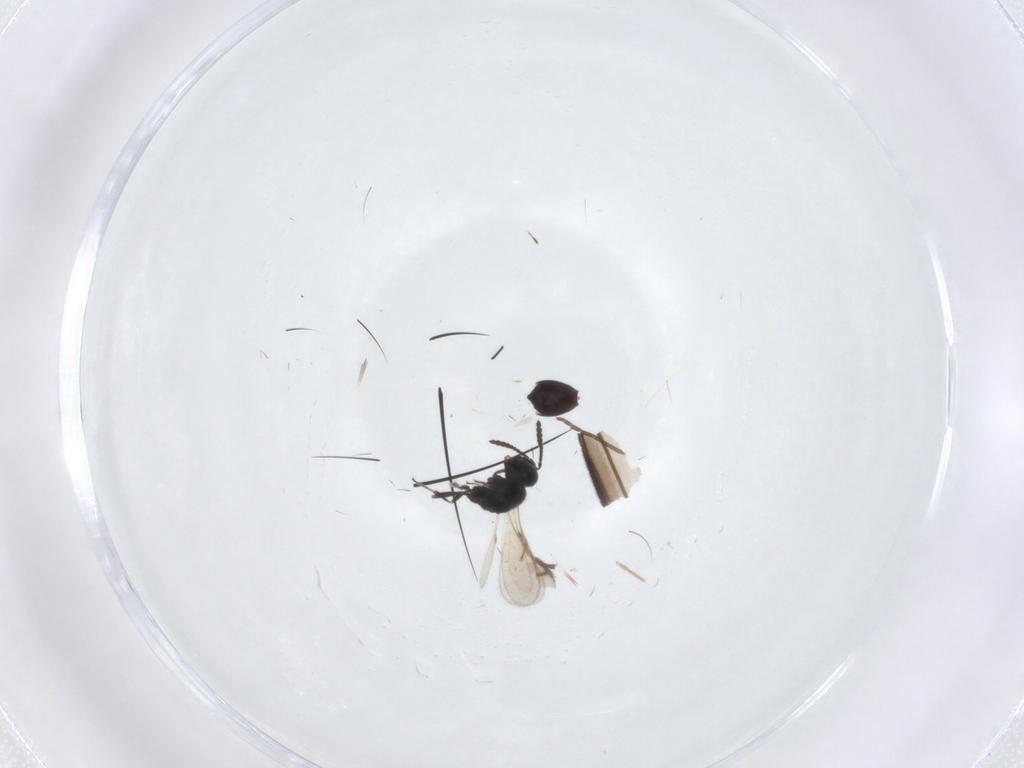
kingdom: Animalia
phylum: Arthropoda
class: Insecta
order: Hymenoptera
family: Scelionidae
